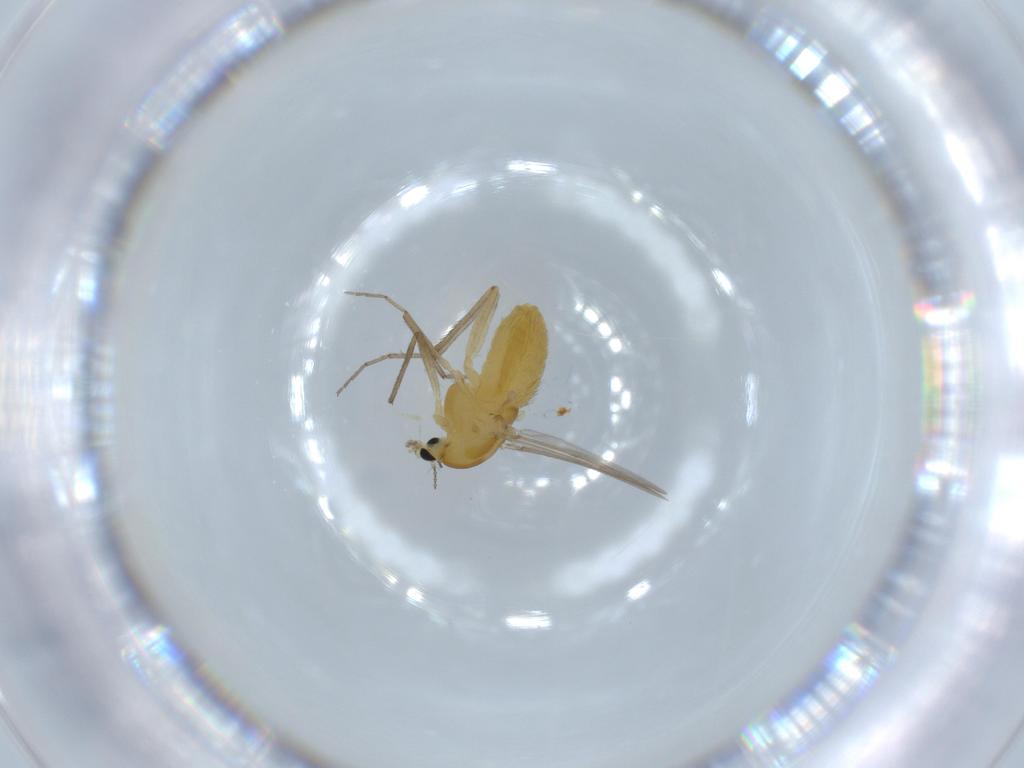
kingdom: Animalia
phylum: Arthropoda
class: Insecta
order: Diptera
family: Chironomidae
